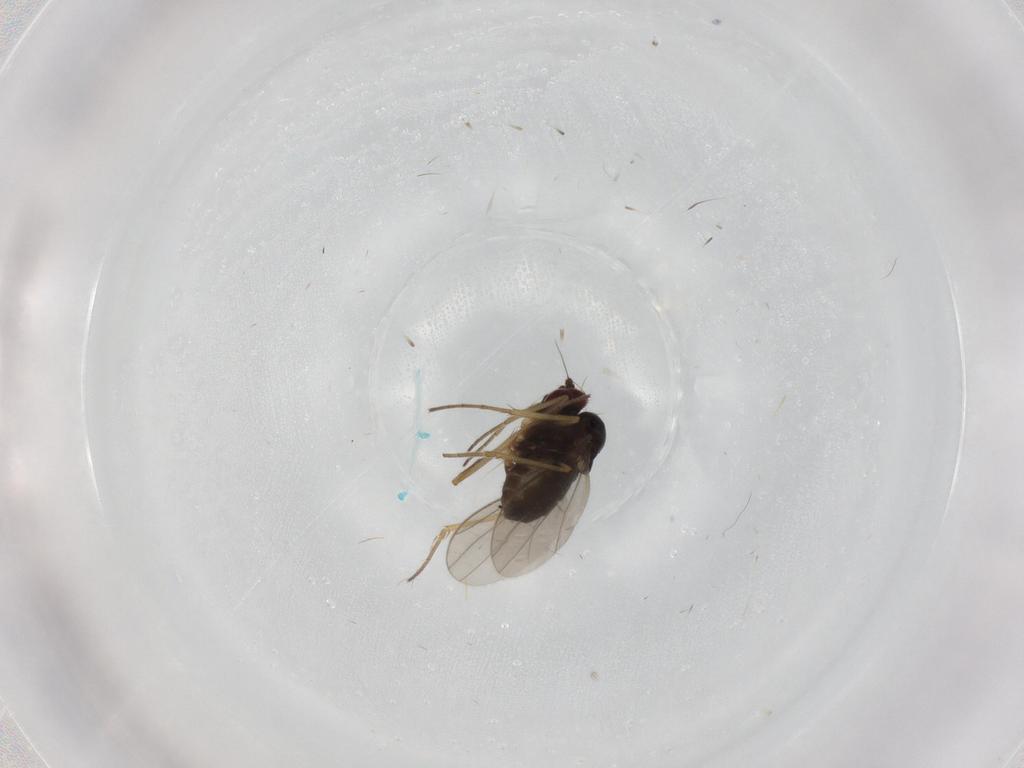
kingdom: Animalia
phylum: Arthropoda
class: Insecta
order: Diptera
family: Dolichopodidae
